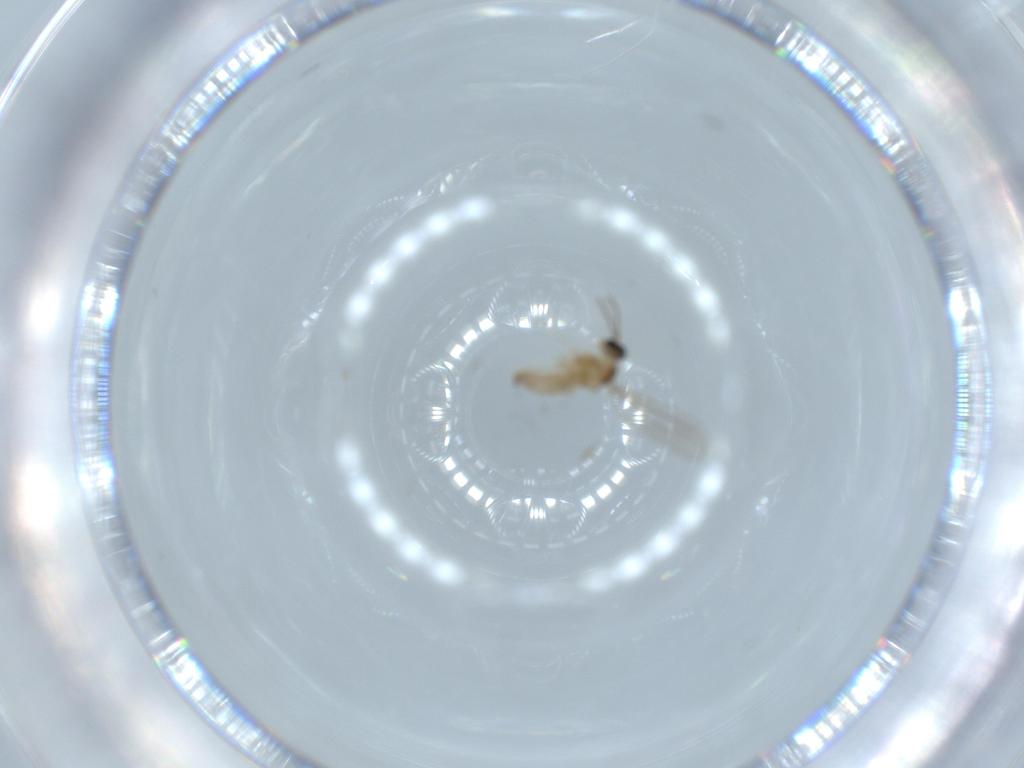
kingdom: Animalia
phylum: Arthropoda
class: Insecta
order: Diptera
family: Cecidomyiidae
